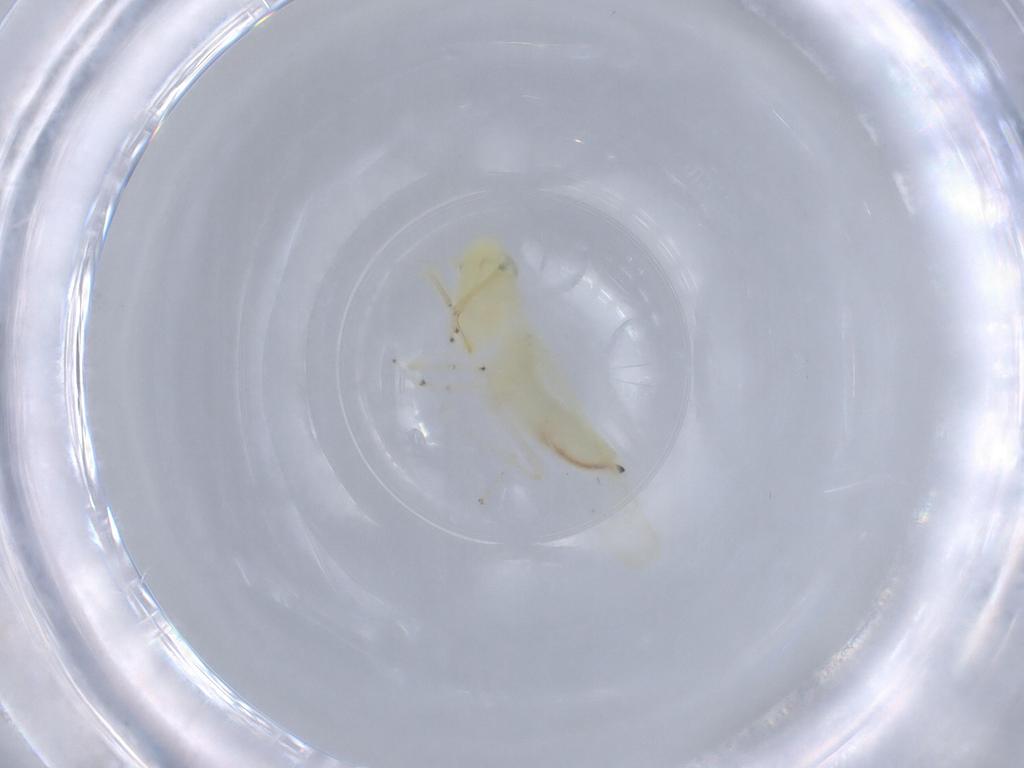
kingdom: Animalia
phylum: Arthropoda
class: Insecta
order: Hemiptera
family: Cicadellidae
